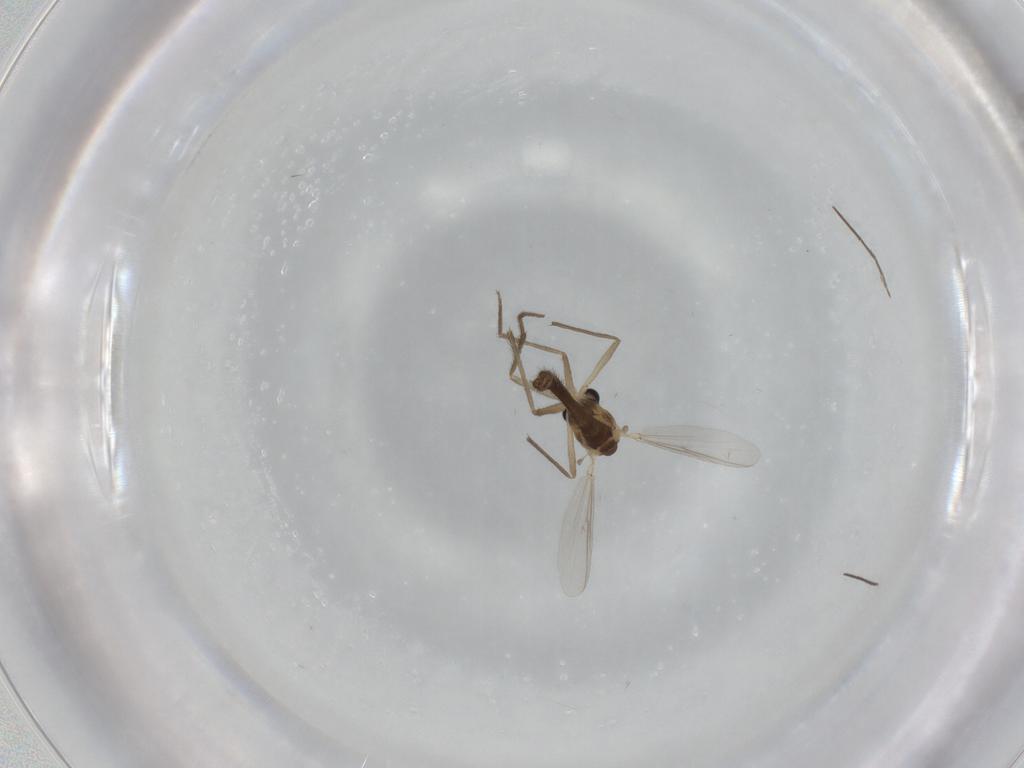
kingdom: Animalia
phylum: Arthropoda
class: Insecta
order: Diptera
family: Chironomidae
